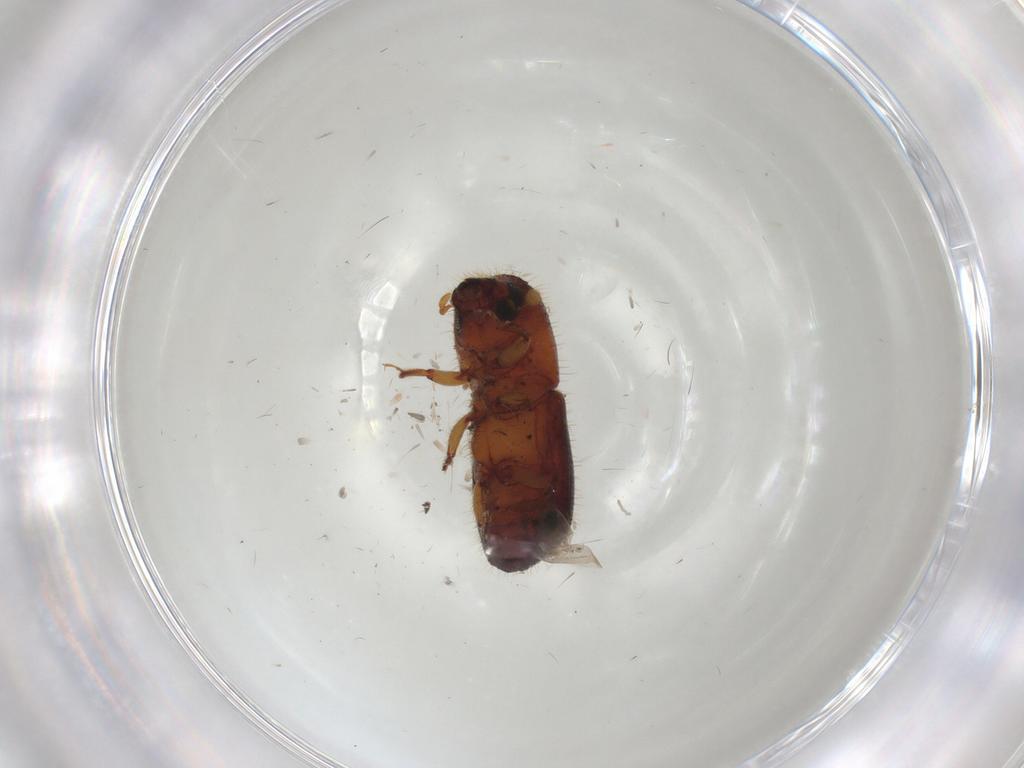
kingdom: Animalia
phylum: Arthropoda
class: Insecta
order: Coleoptera
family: Curculionidae
